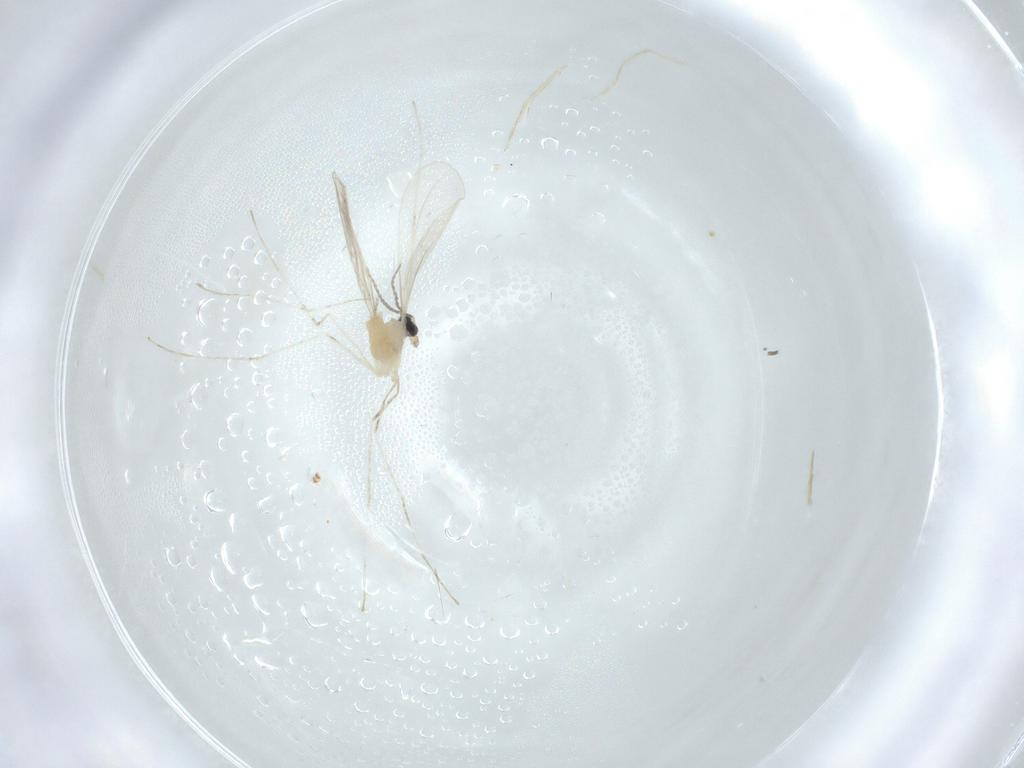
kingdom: Animalia
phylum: Arthropoda
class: Insecta
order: Diptera
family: Cecidomyiidae
